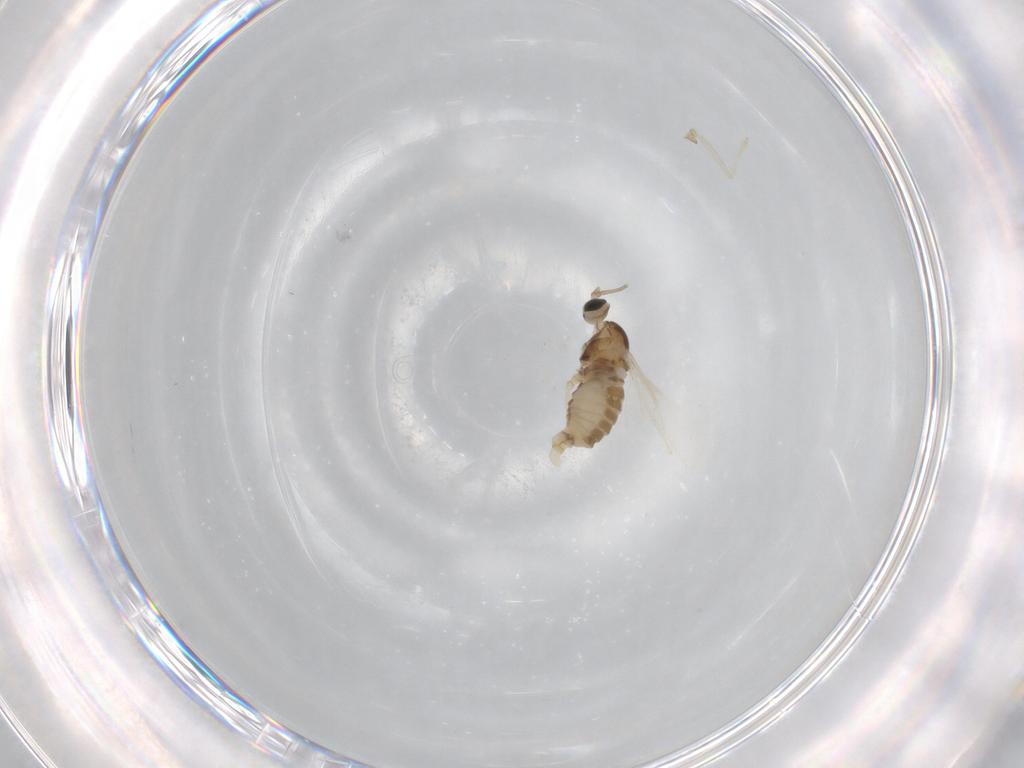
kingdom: Animalia
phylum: Arthropoda
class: Insecta
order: Diptera
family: Cecidomyiidae
